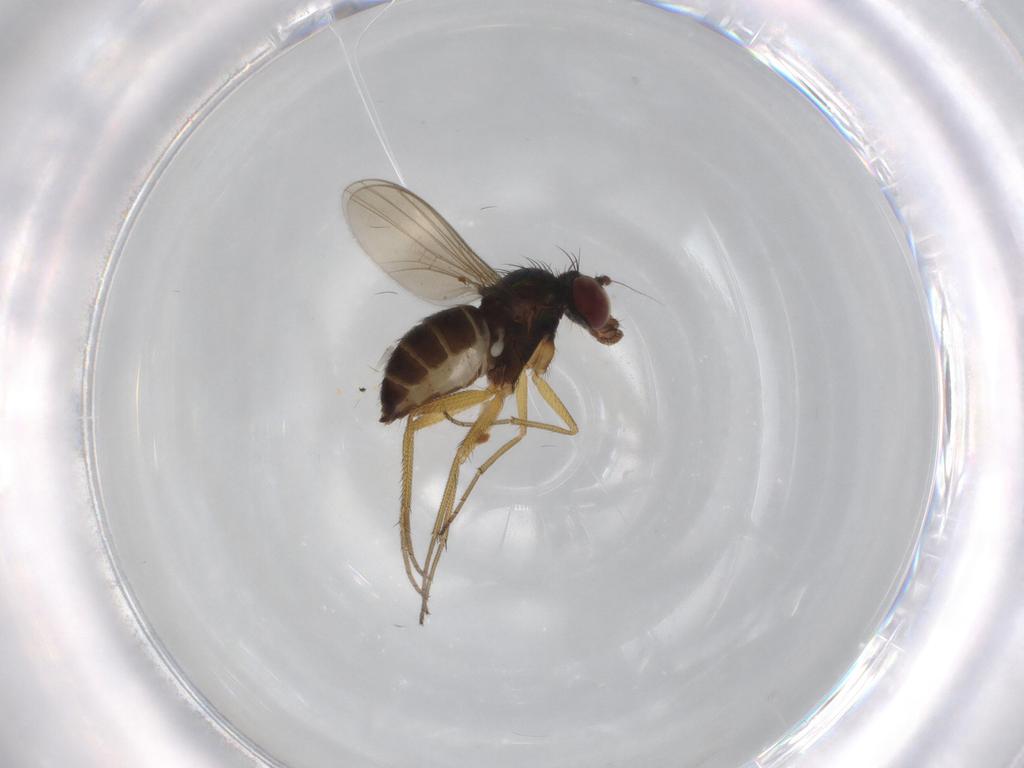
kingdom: Animalia
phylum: Arthropoda
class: Insecta
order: Diptera
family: Dolichopodidae
